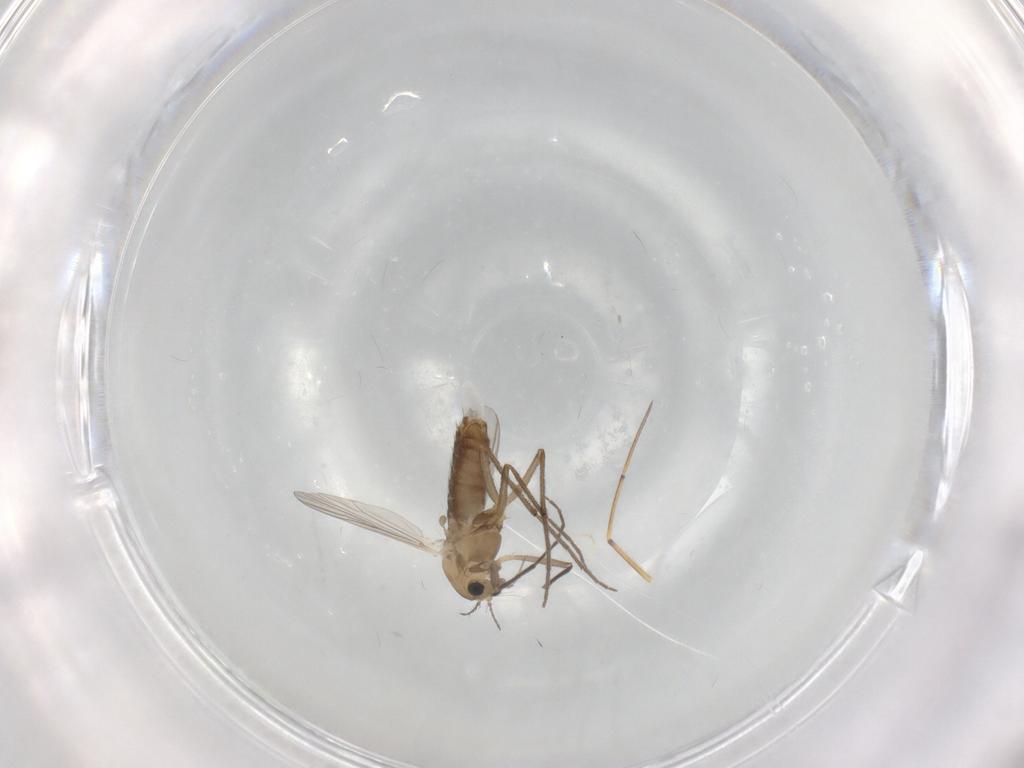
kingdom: Animalia
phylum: Arthropoda
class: Insecta
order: Diptera
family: Chironomidae
